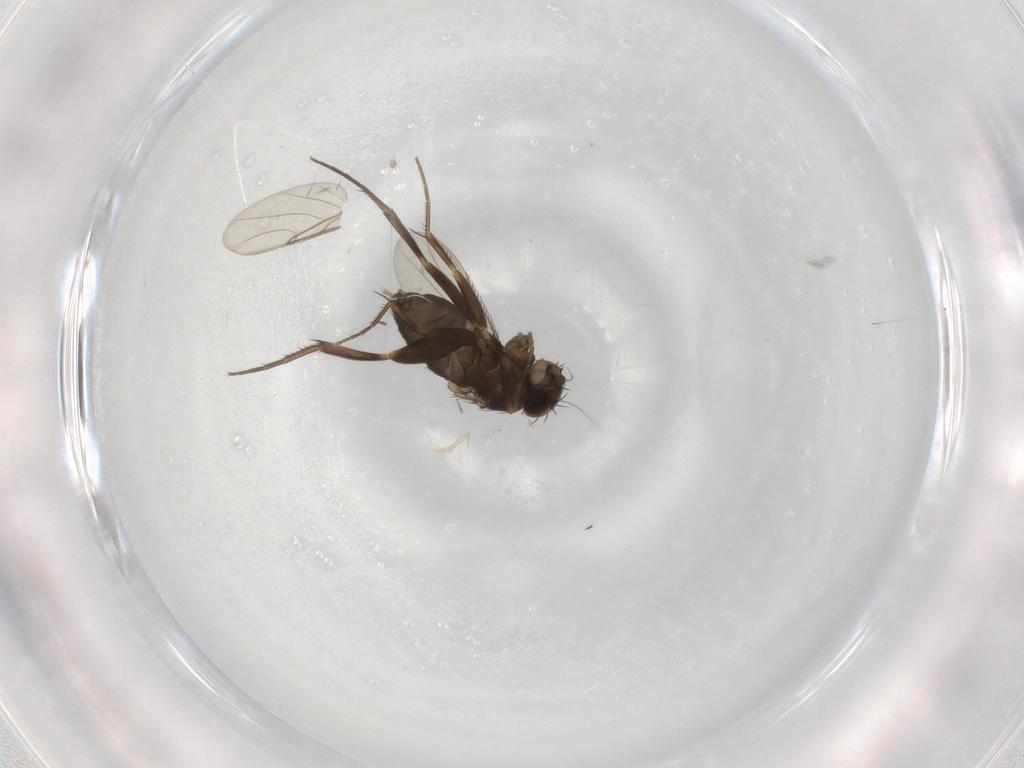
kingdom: Animalia
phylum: Arthropoda
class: Insecta
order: Diptera
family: Phoridae
